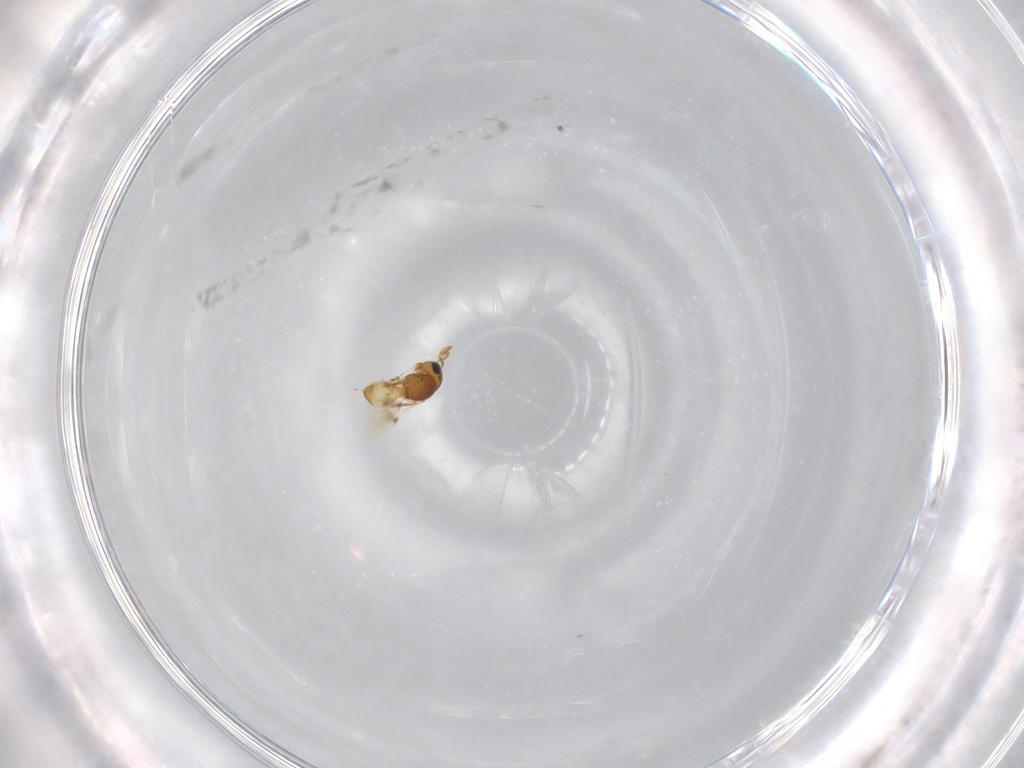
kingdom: Animalia
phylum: Arthropoda
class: Insecta
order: Hymenoptera
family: Scelionidae
